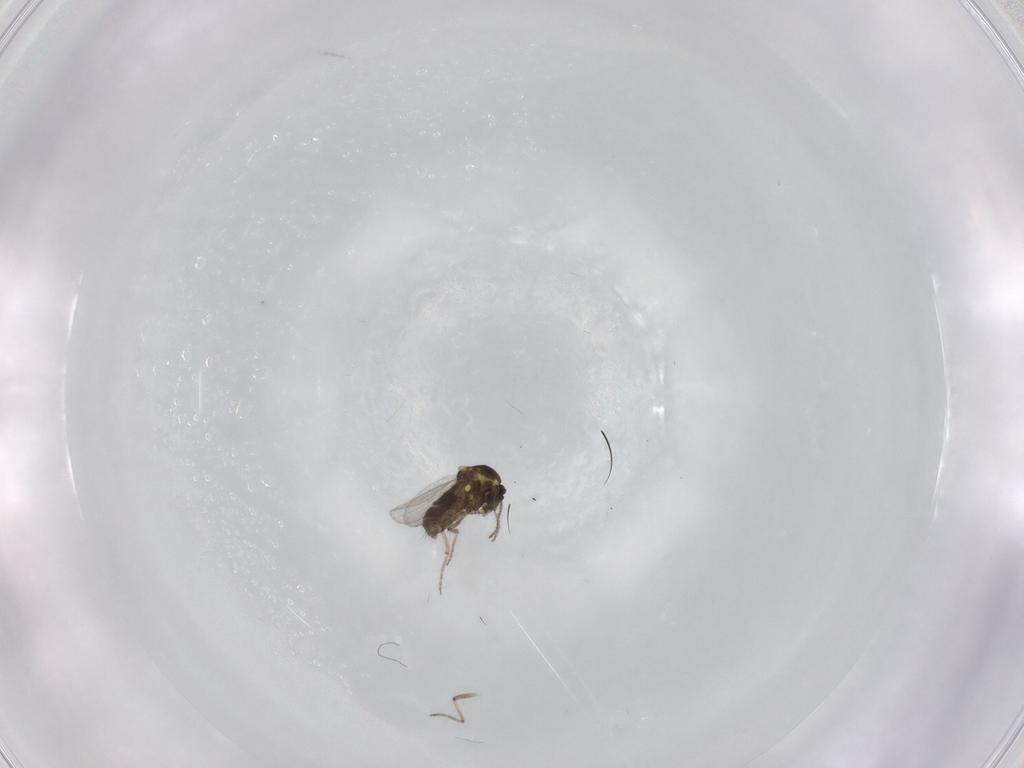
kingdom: Animalia
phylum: Arthropoda
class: Insecta
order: Diptera
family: Ceratopogonidae
